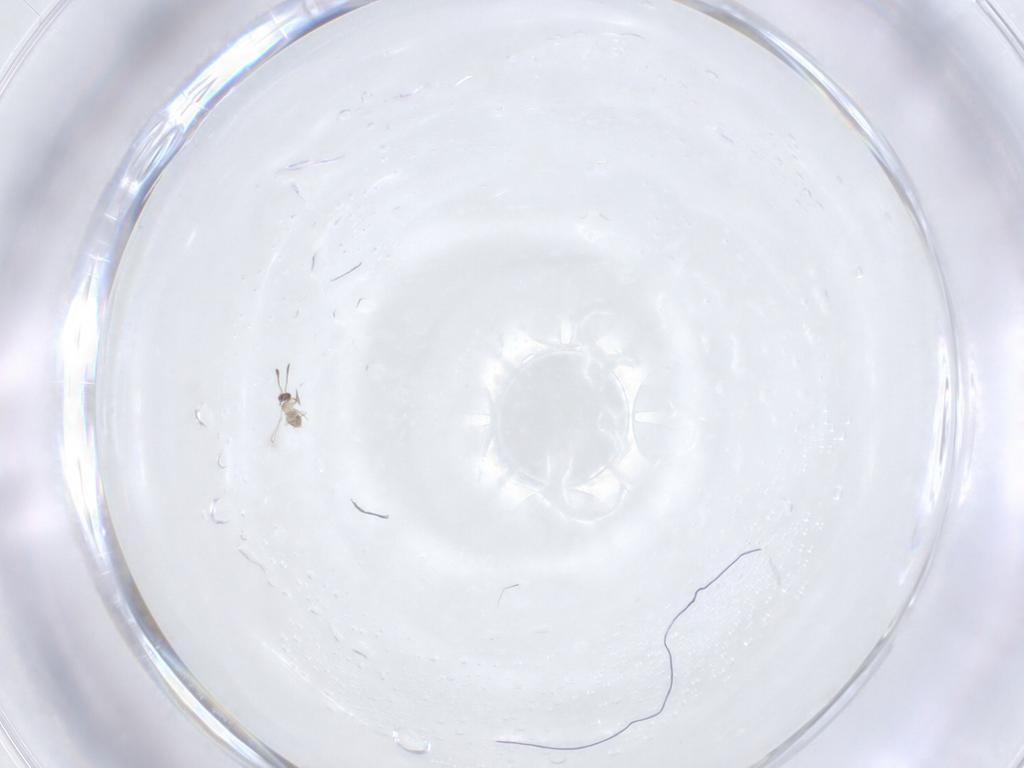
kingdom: Animalia
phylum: Arthropoda
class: Insecta
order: Hymenoptera
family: Mymaridae
